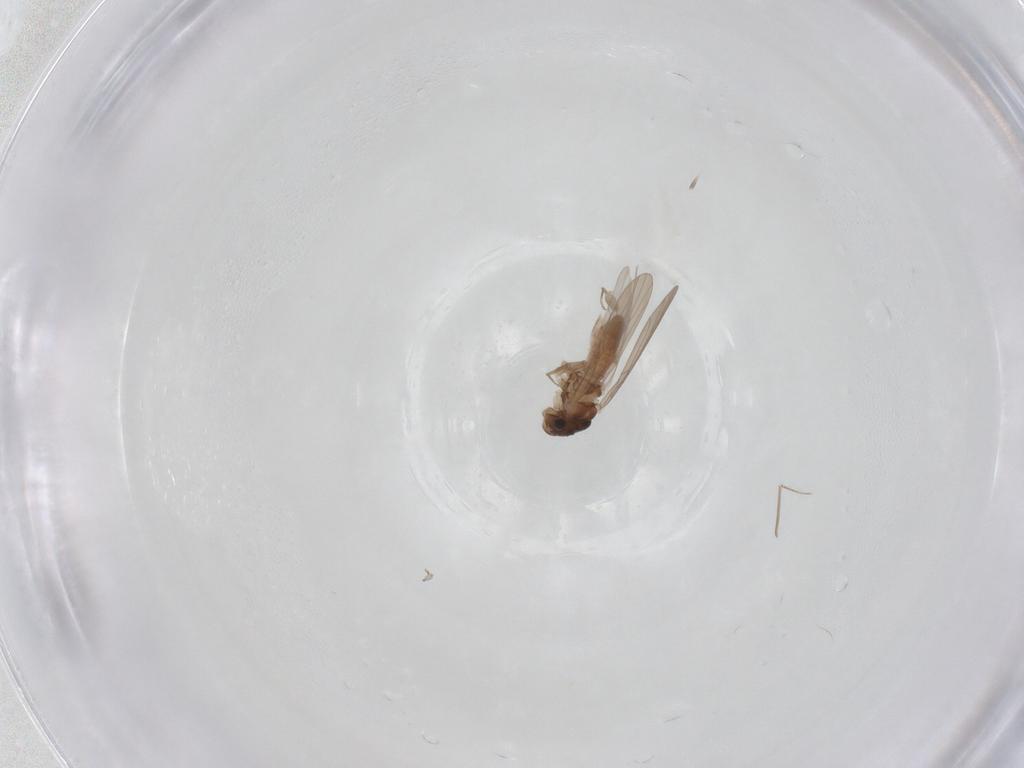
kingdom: Animalia
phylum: Arthropoda
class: Insecta
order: Psocodea
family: Lepidopsocidae
